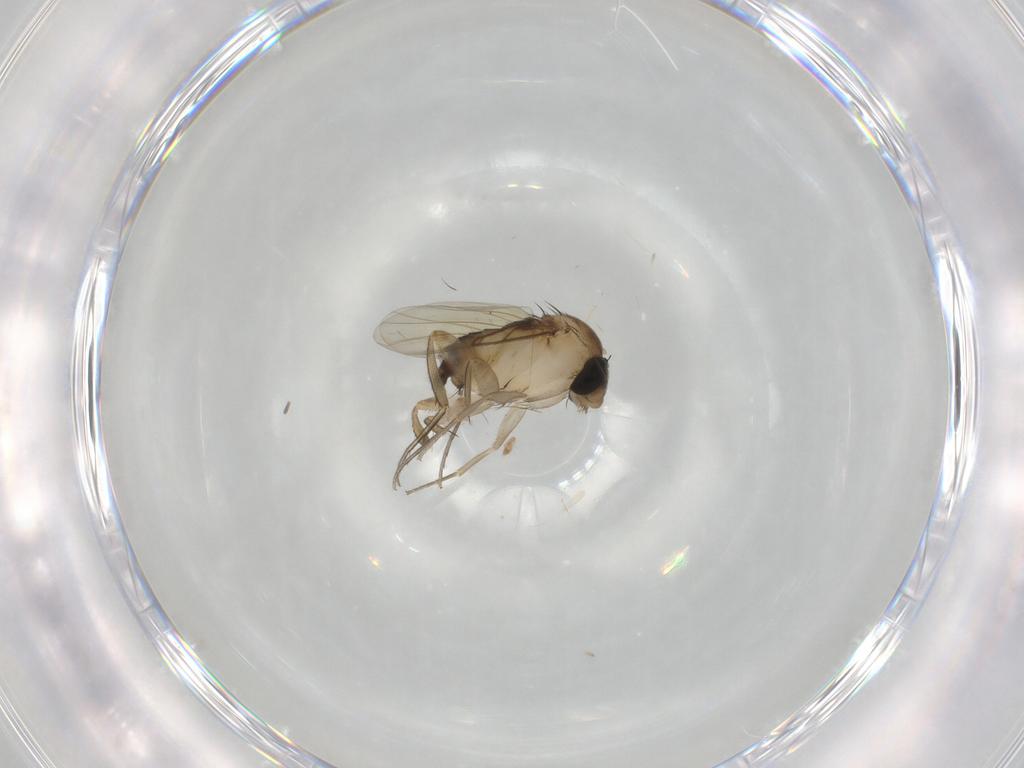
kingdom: Animalia
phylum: Arthropoda
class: Insecta
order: Diptera
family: Phoridae
